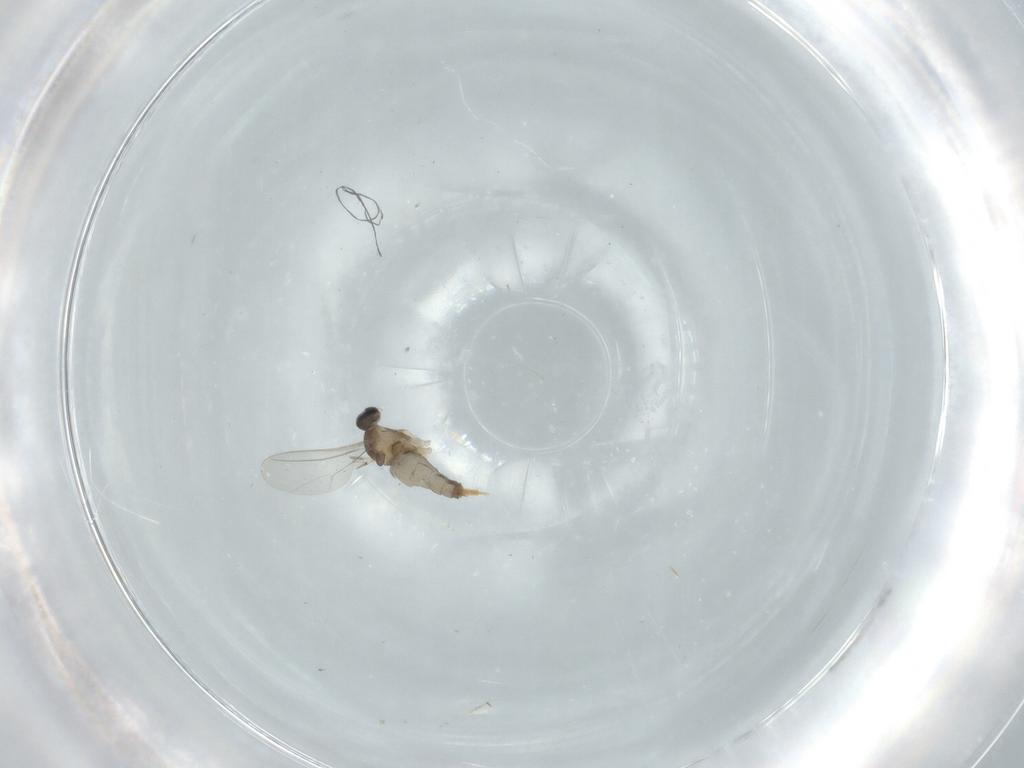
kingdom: Animalia
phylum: Arthropoda
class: Insecta
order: Diptera
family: Cecidomyiidae
